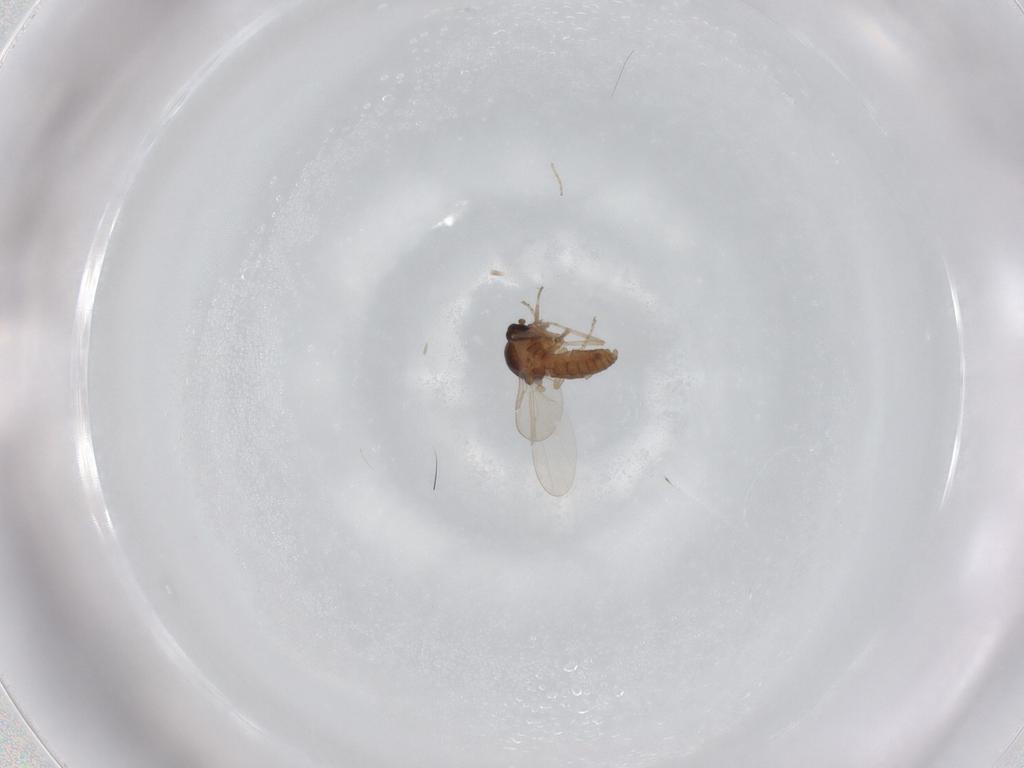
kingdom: Animalia
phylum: Arthropoda
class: Insecta
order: Diptera
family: Ceratopogonidae
